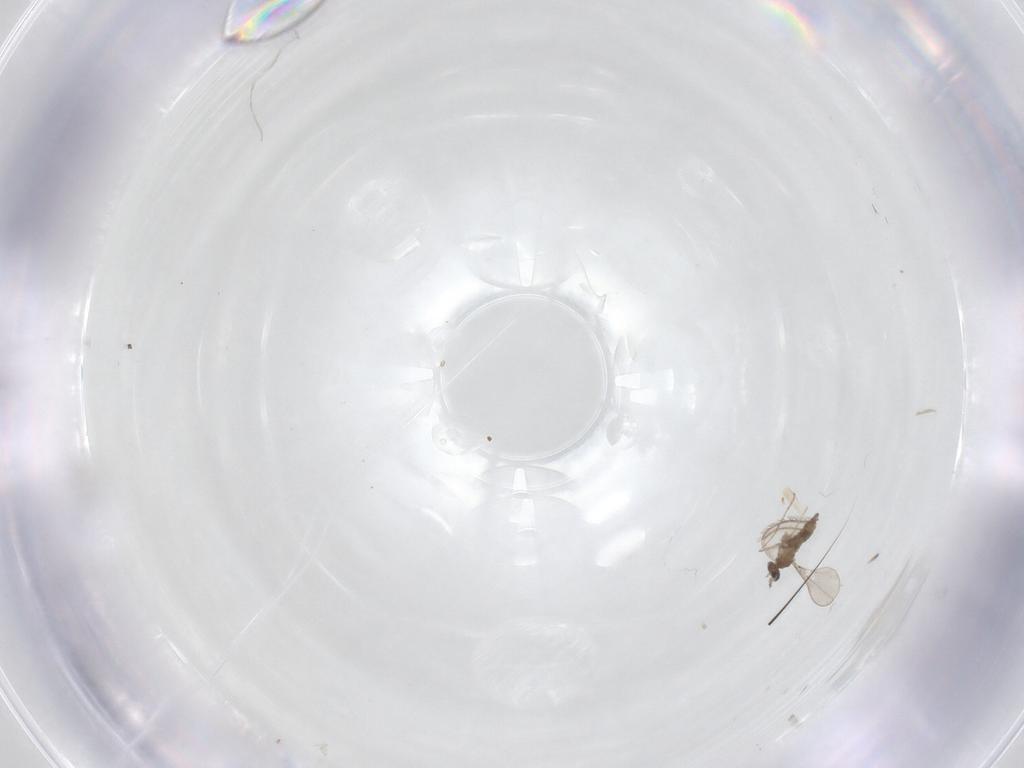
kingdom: Animalia
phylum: Arthropoda
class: Insecta
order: Diptera
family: Cecidomyiidae
